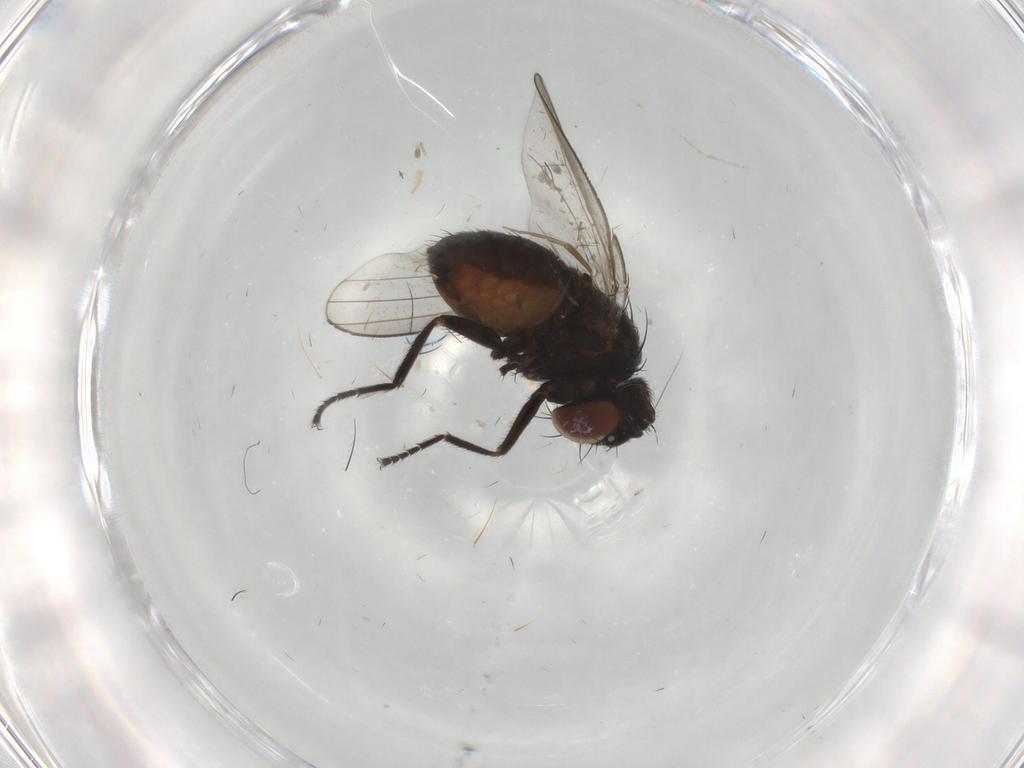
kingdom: Animalia
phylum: Arthropoda
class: Insecta
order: Diptera
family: Milichiidae
